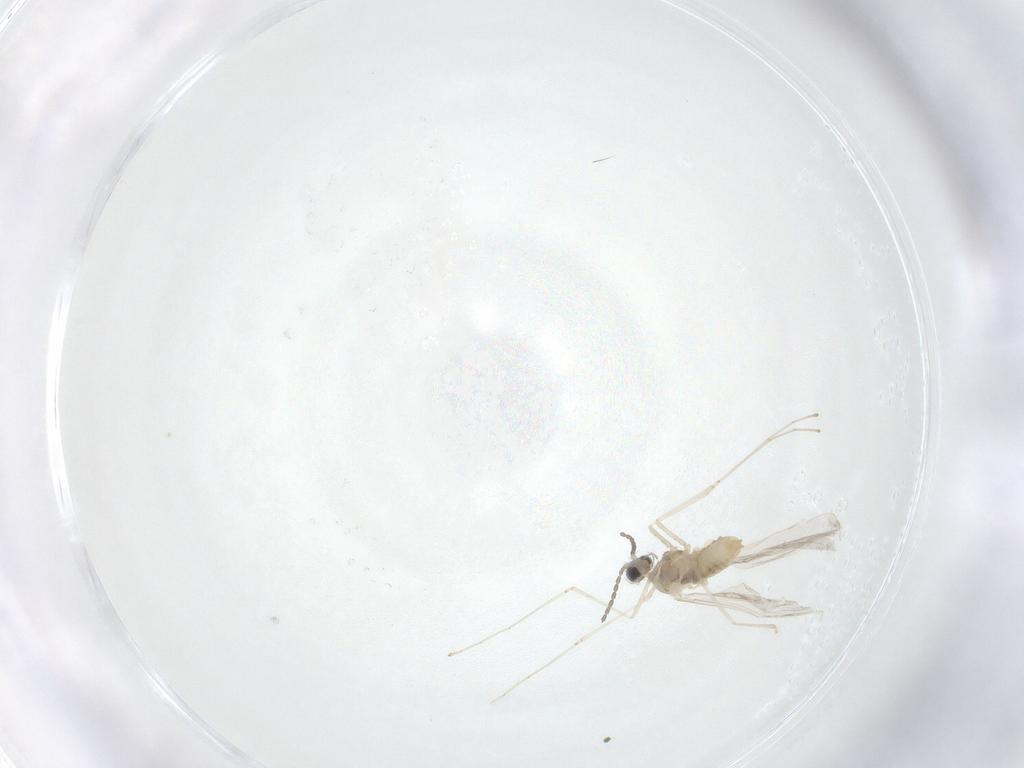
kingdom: Animalia
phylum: Arthropoda
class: Insecta
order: Diptera
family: Cecidomyiidae
